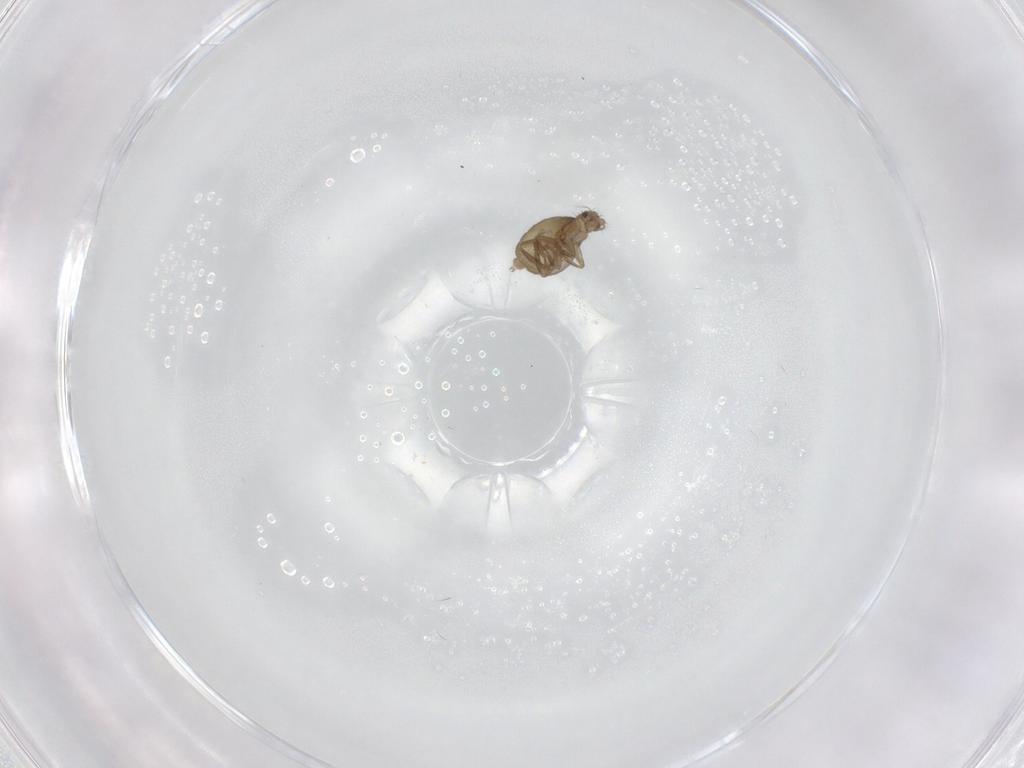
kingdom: Animalia
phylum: Arthropoda
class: Insecta
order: Diptera
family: Phoridae
